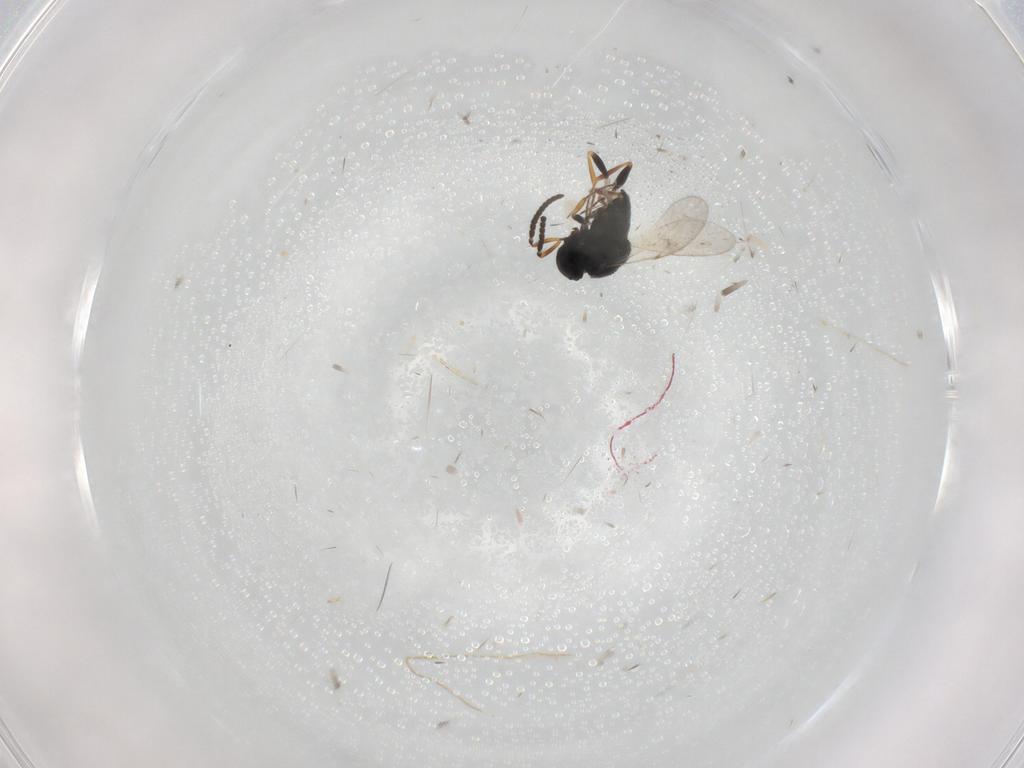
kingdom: Animalia
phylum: Arthropoda
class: Insecta
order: Coleoptera
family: Curculionidae
